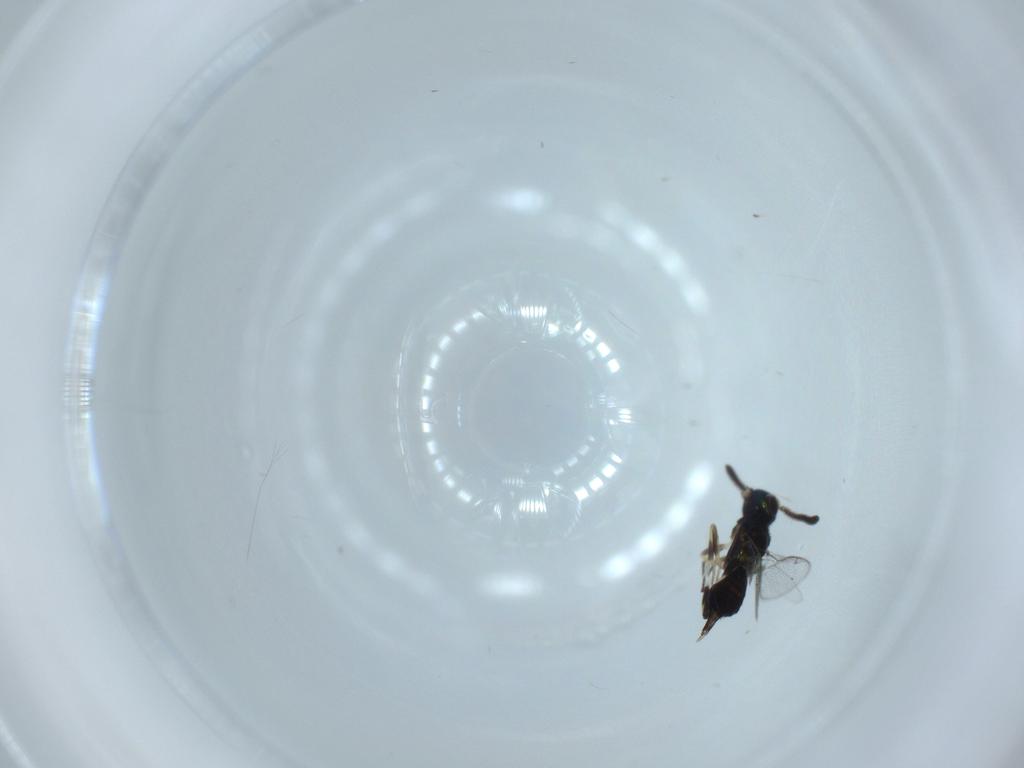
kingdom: Animalia
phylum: Arthropoda
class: Insecta
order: Hymenoptera
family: Eupelmidae
